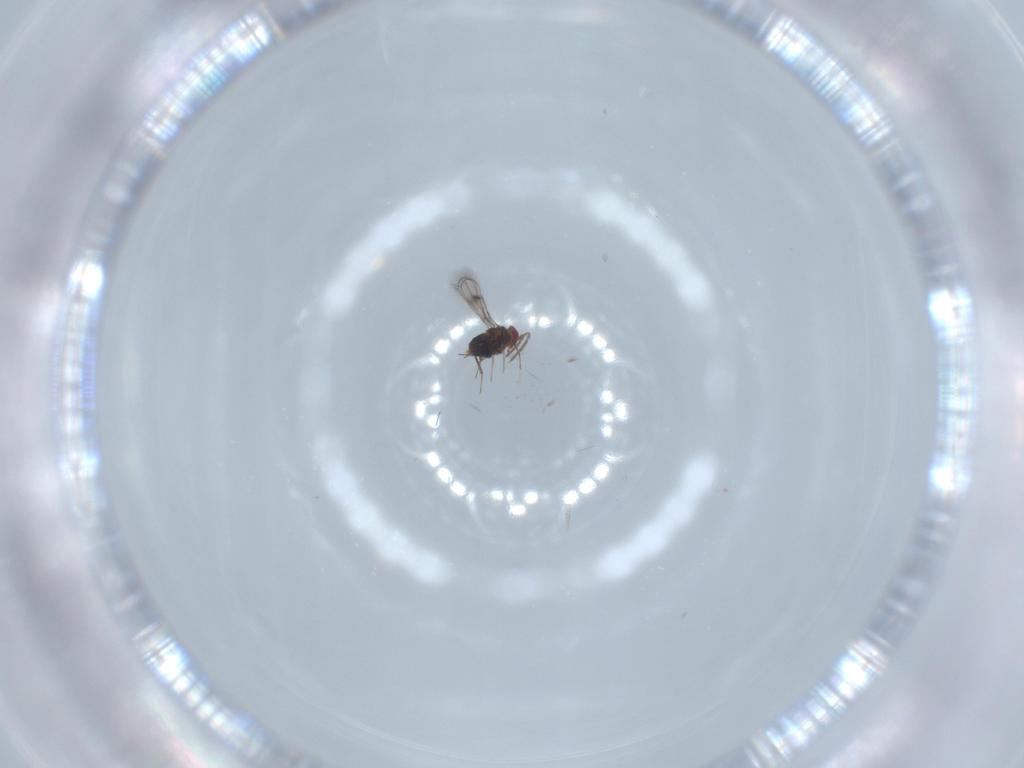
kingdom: Animalia
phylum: Arthropoda
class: Insecta
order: Hymenoptera
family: Trichogrammatidae
